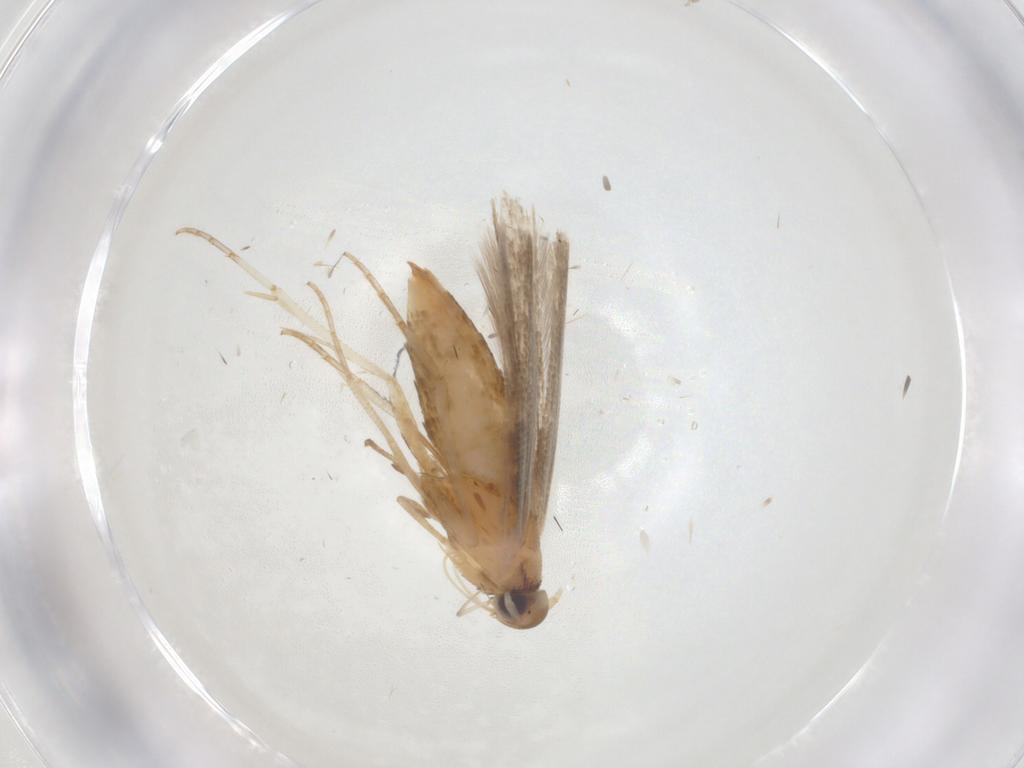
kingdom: Animalia
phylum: Arthropoda
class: Insecta
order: Lepidoptera
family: Cosmopterigidae
